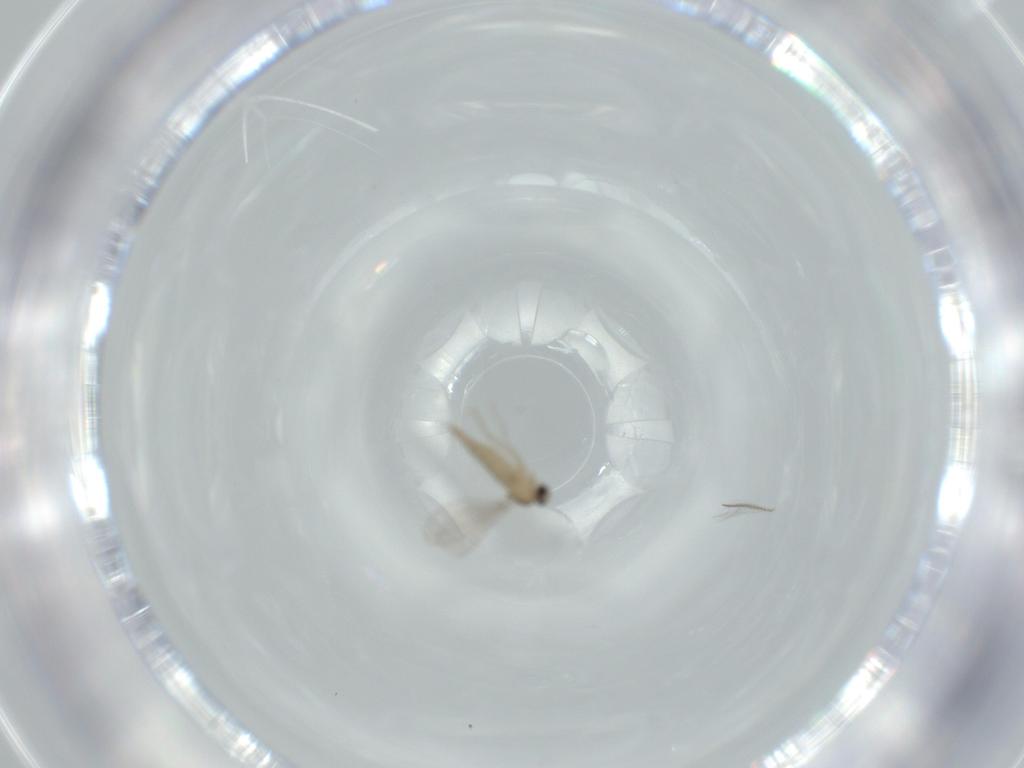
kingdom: Animalia
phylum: Arthropoda
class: Insecta
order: Diptera
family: Cecidomyiidae
